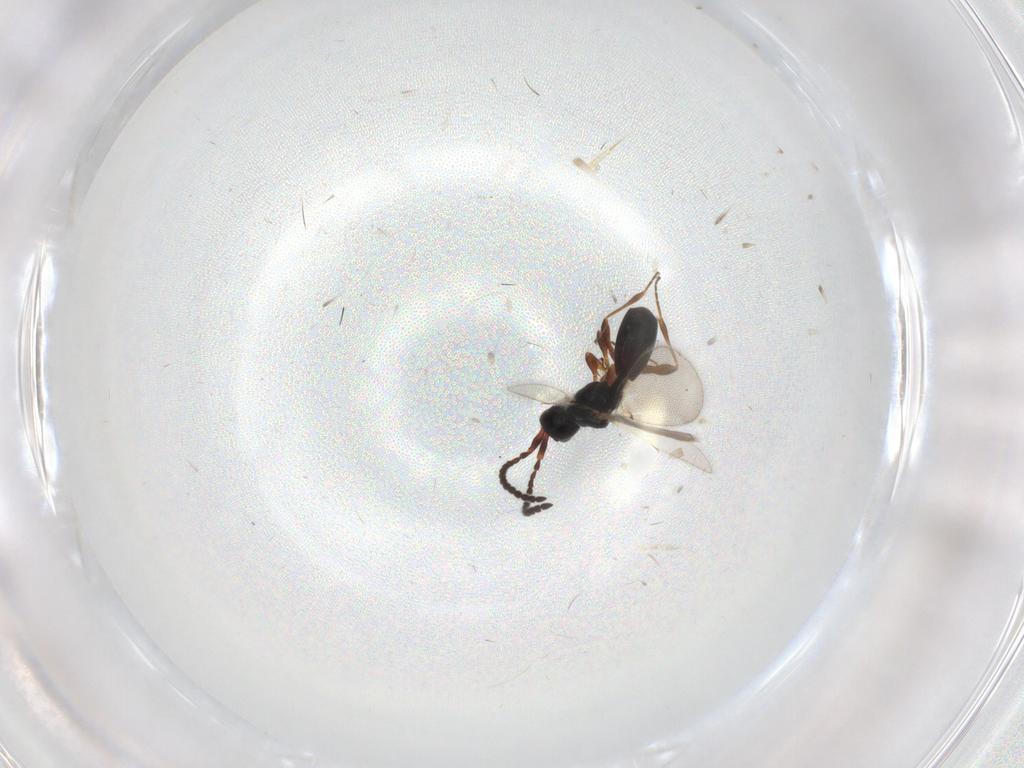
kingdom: Animalia
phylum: Arthropoda
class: Insecta
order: Hymenoptera
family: Diapriidae
